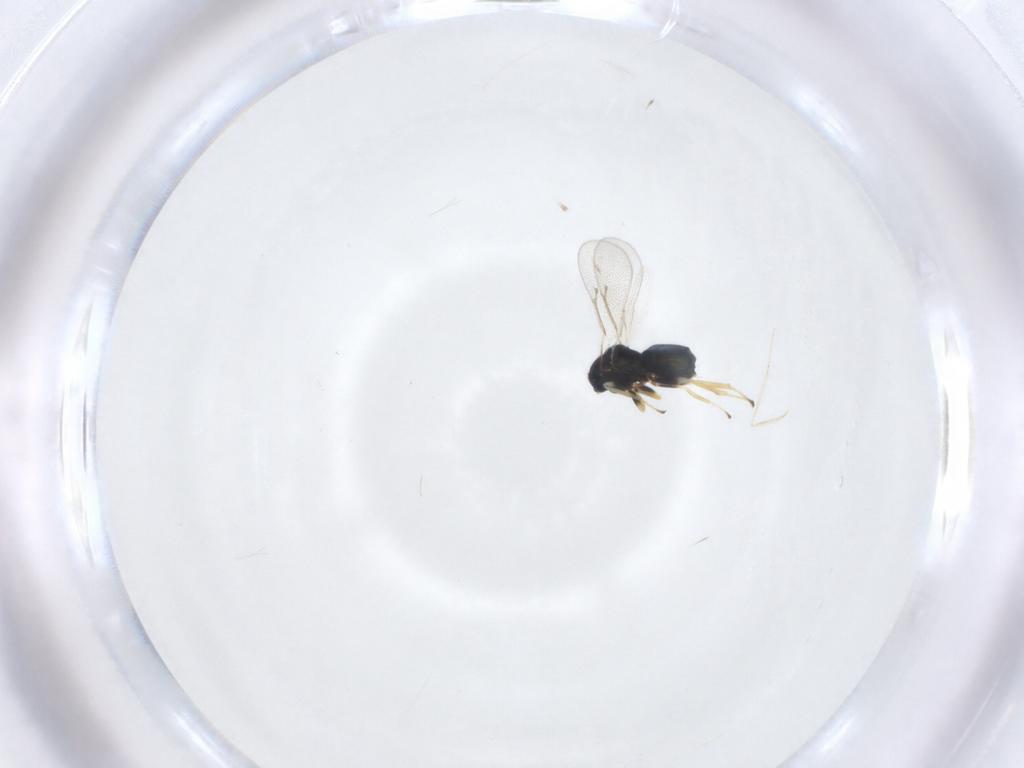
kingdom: Animalia
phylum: Arthropoda
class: Insecta
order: Hymenoptera
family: Eulophidae
